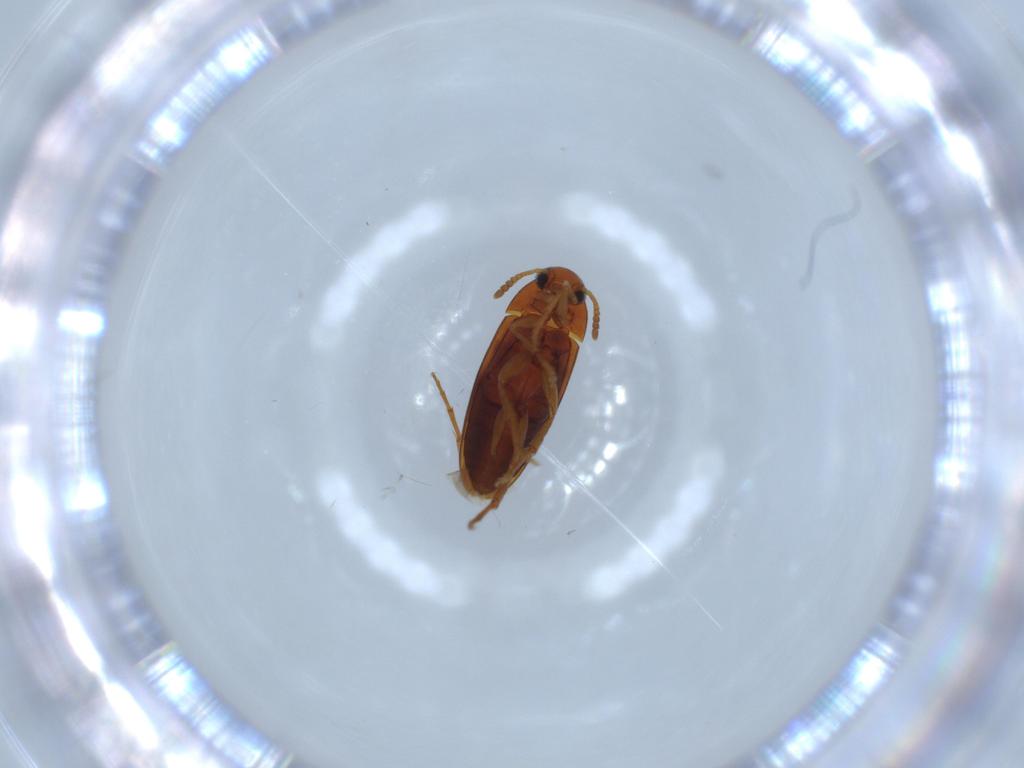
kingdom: Animalia
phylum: Arthropoda
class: Insecta
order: Coleoptera
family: Scraptiidae
